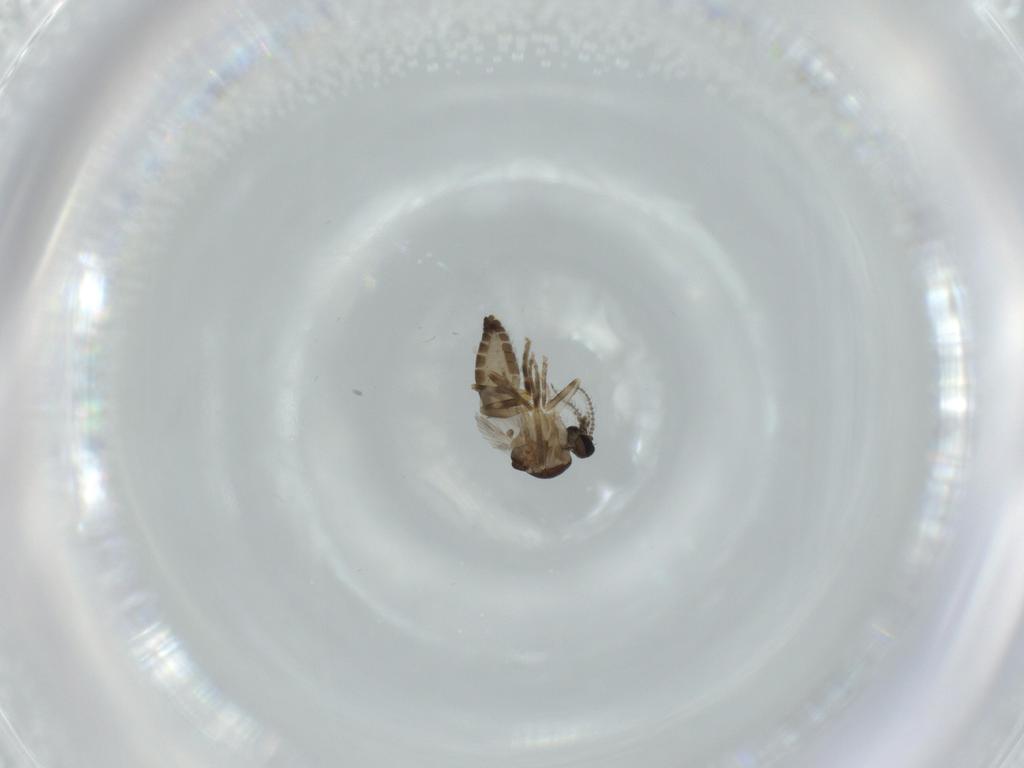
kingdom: Animalia
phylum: Arthropoda
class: Insecta
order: Diptera
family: Ceratopogonidae
